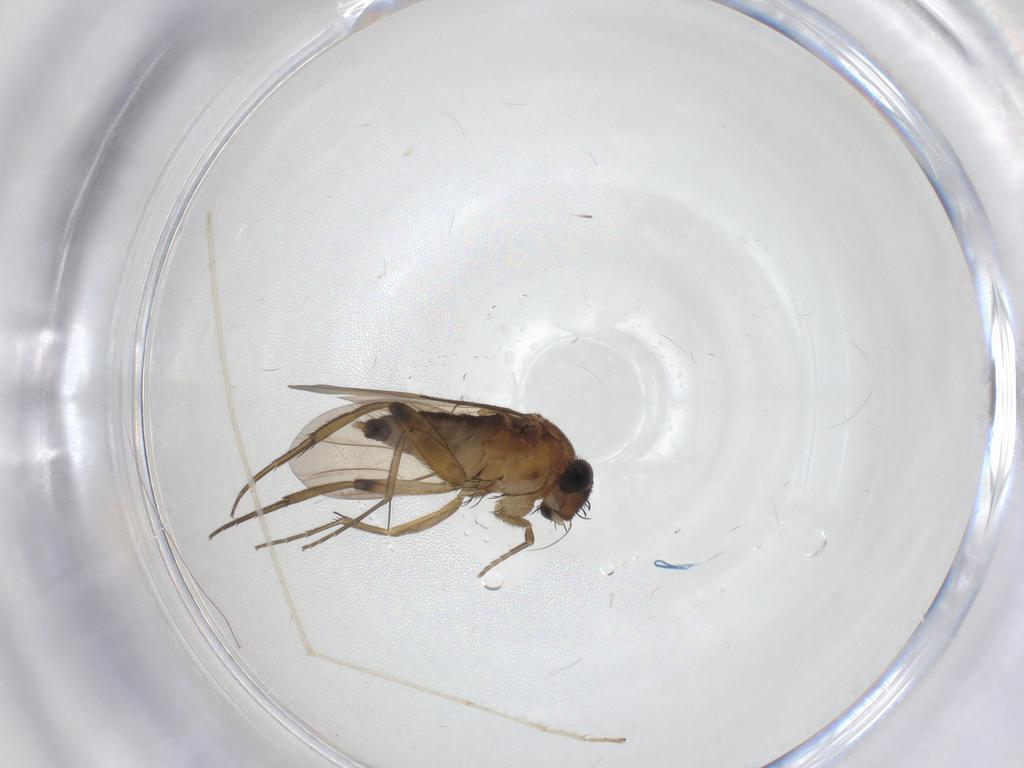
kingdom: Animalia
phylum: Arthropoda
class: Insecta
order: Diptera
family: Phoridae
